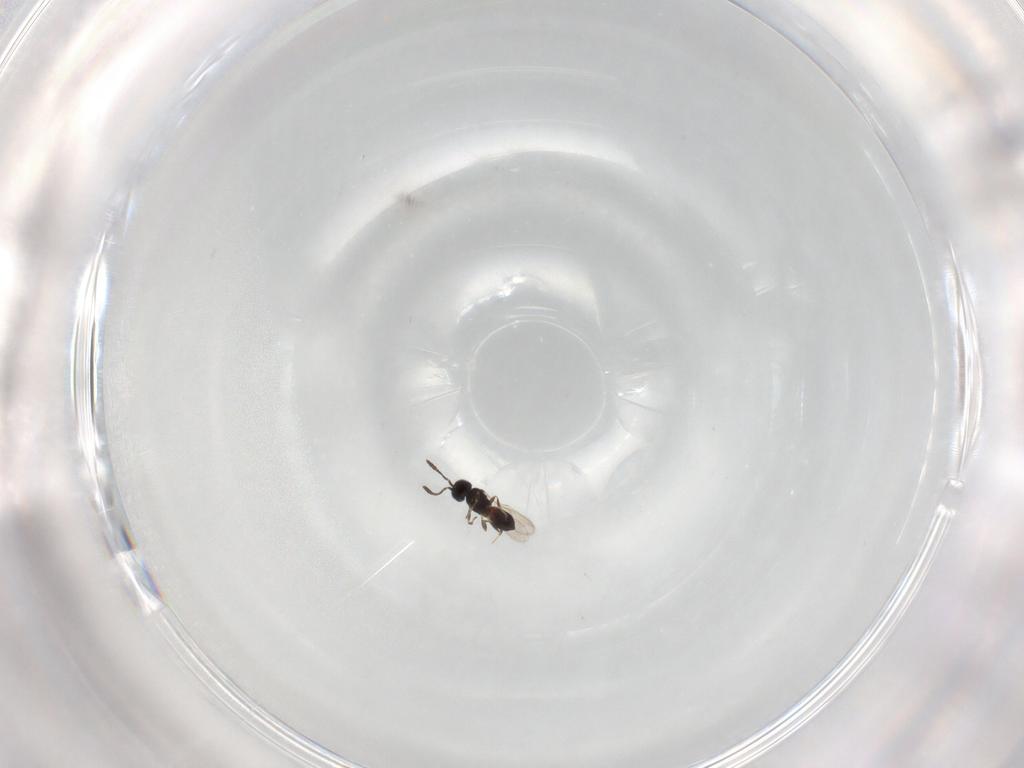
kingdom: Animalia
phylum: Arthropoda
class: Insecta
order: Hymenoptera
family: Scelionidae
